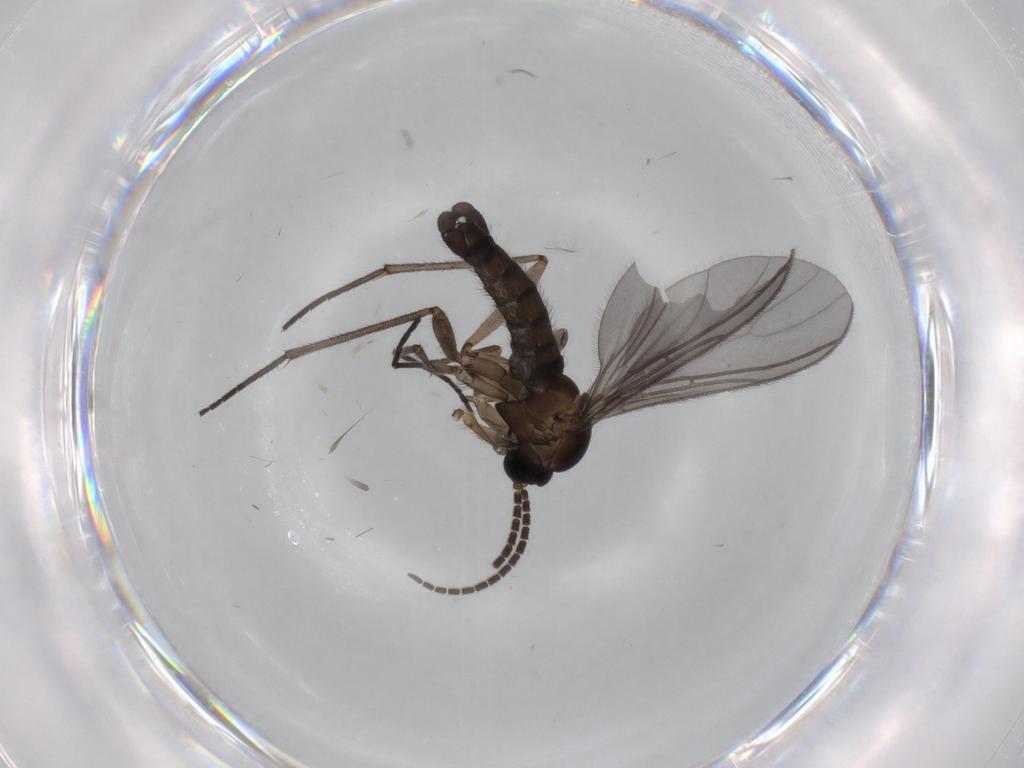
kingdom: Animalia
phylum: Arthropoda
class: Insecta
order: Diptera
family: Sciaridae
